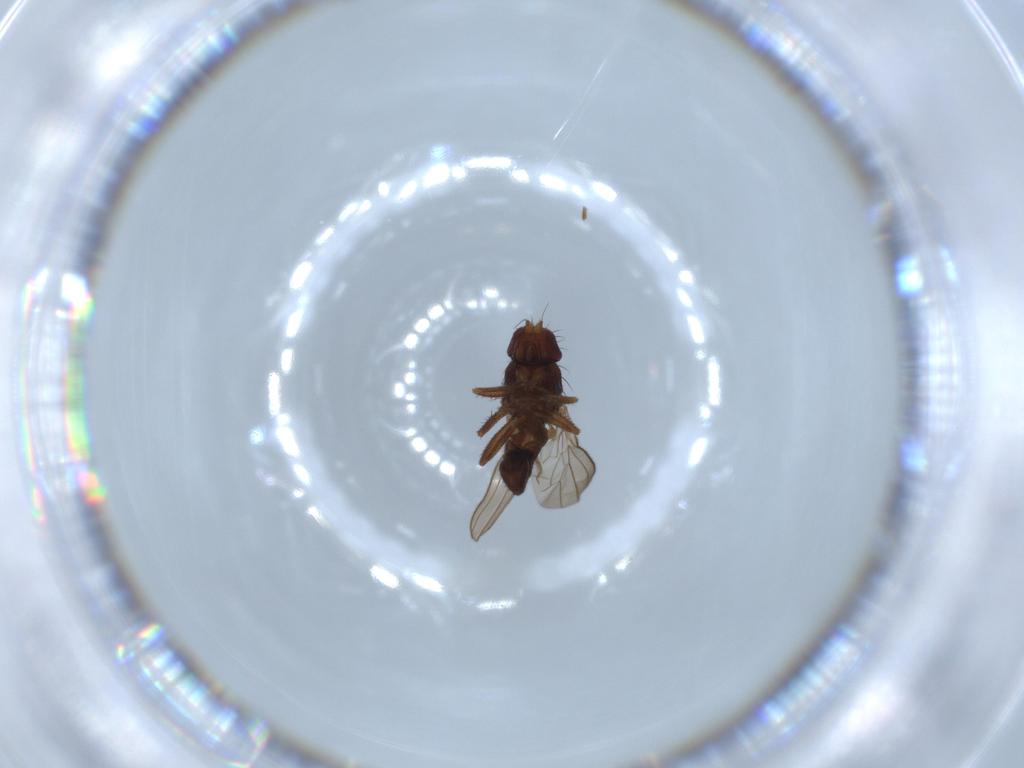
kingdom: Animalia
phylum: Arthropoda
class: Insecta
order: Diptera
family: Heleomyzidae
